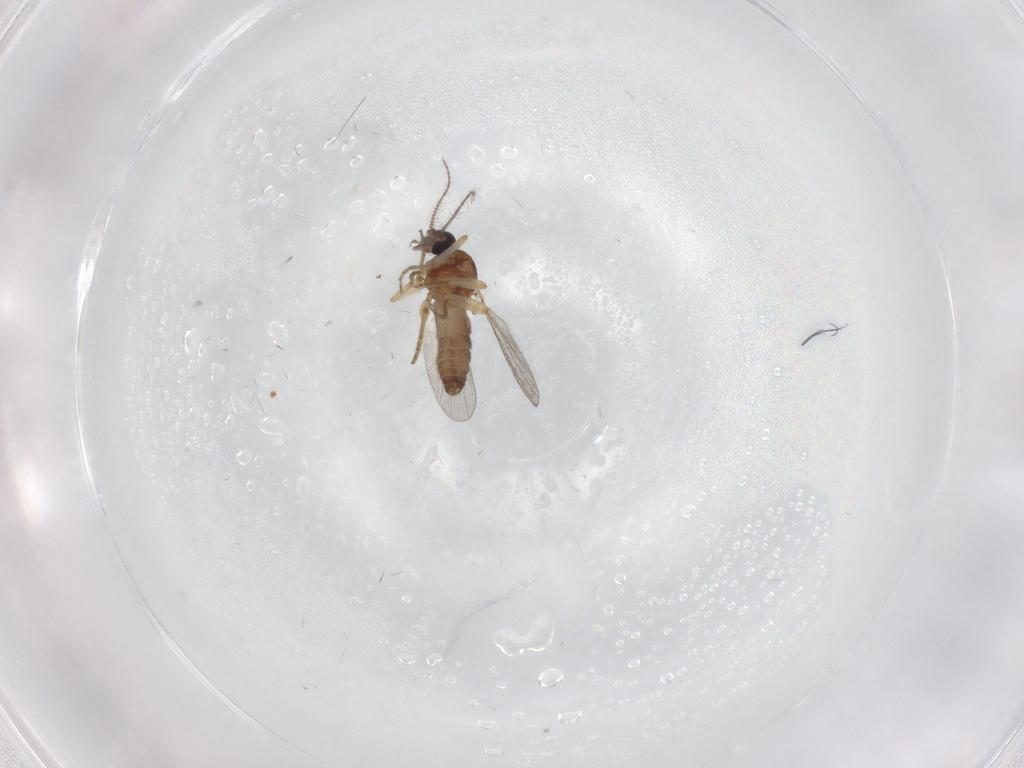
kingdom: Animalia
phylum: Arthropoda
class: Insecta
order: Diptera
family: Ceratopogonidae
